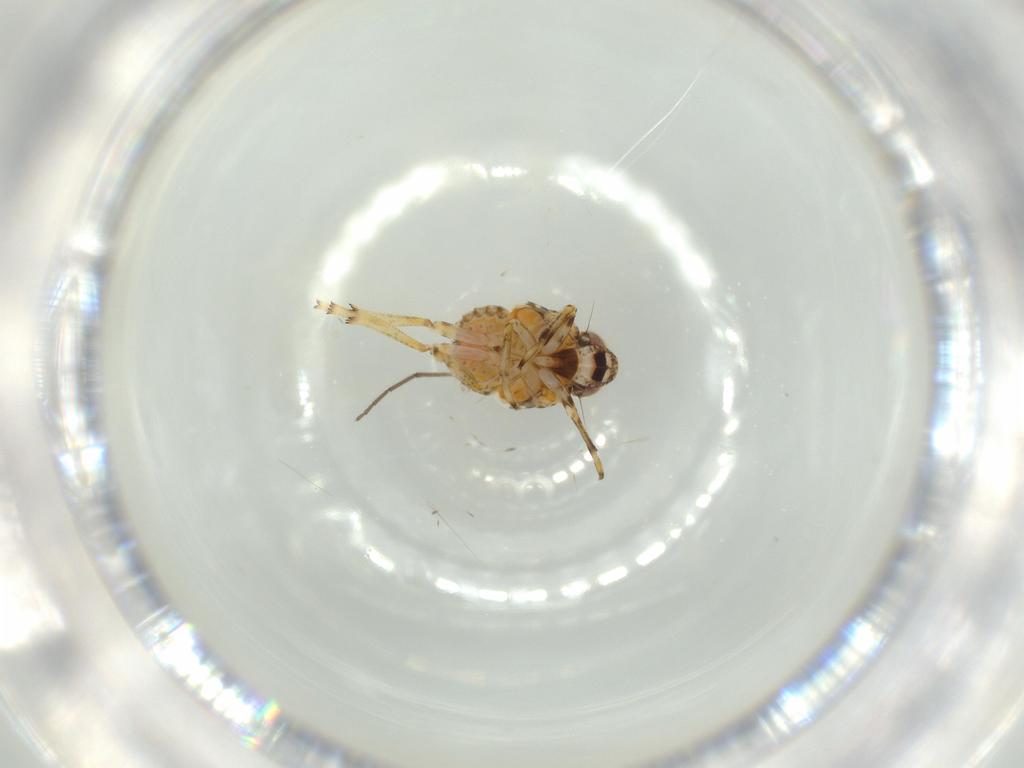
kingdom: Animalia
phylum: Arthropoda
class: Insecta
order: Hemiptera
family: Issidae
